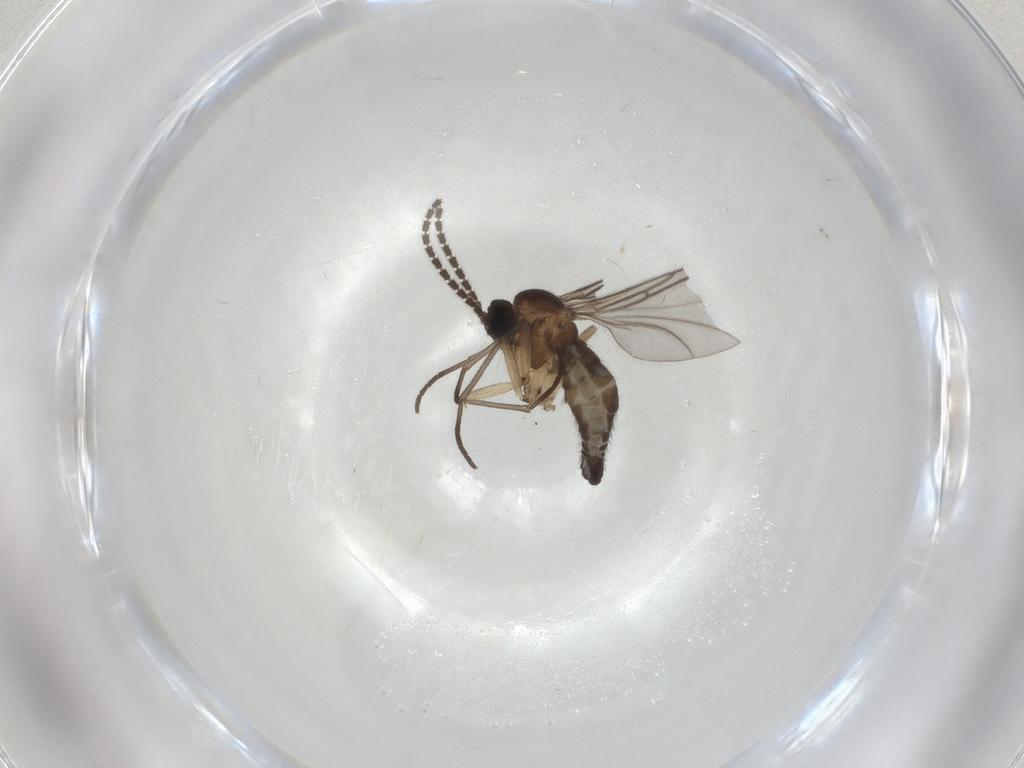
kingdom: Animalia
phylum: Arthropoda
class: Insecta
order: Diptera
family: Sciaridae
